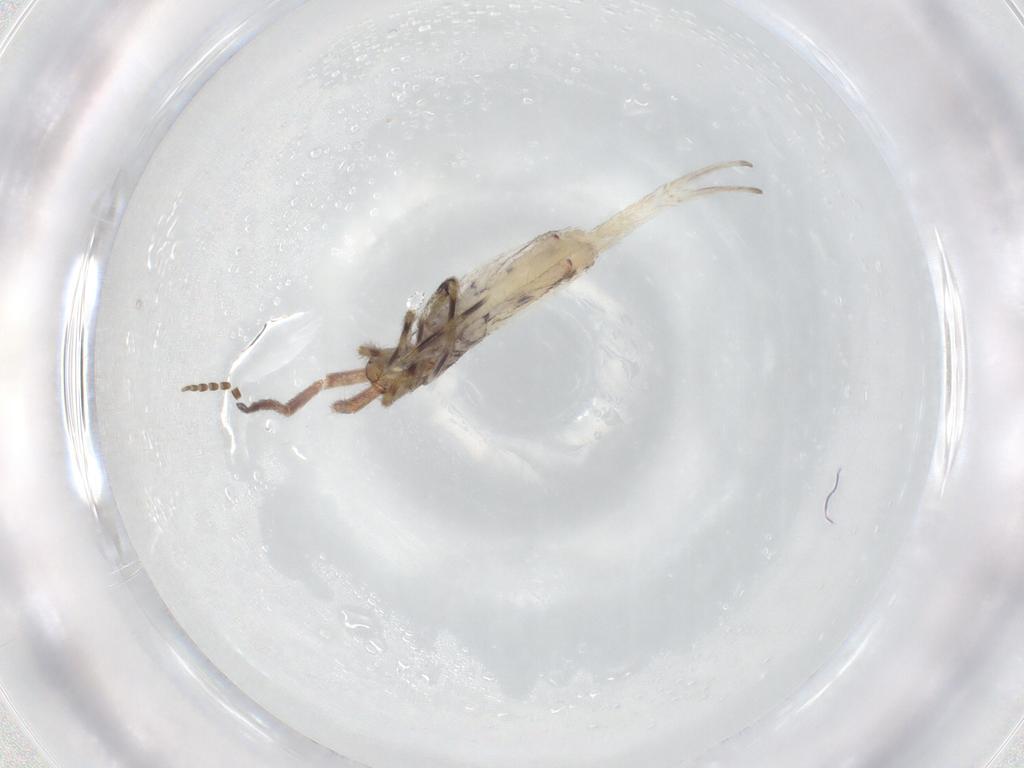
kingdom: Animalia
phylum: Arthropoda
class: Collembola
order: Entomobryomorpha
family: Entomobryidae
